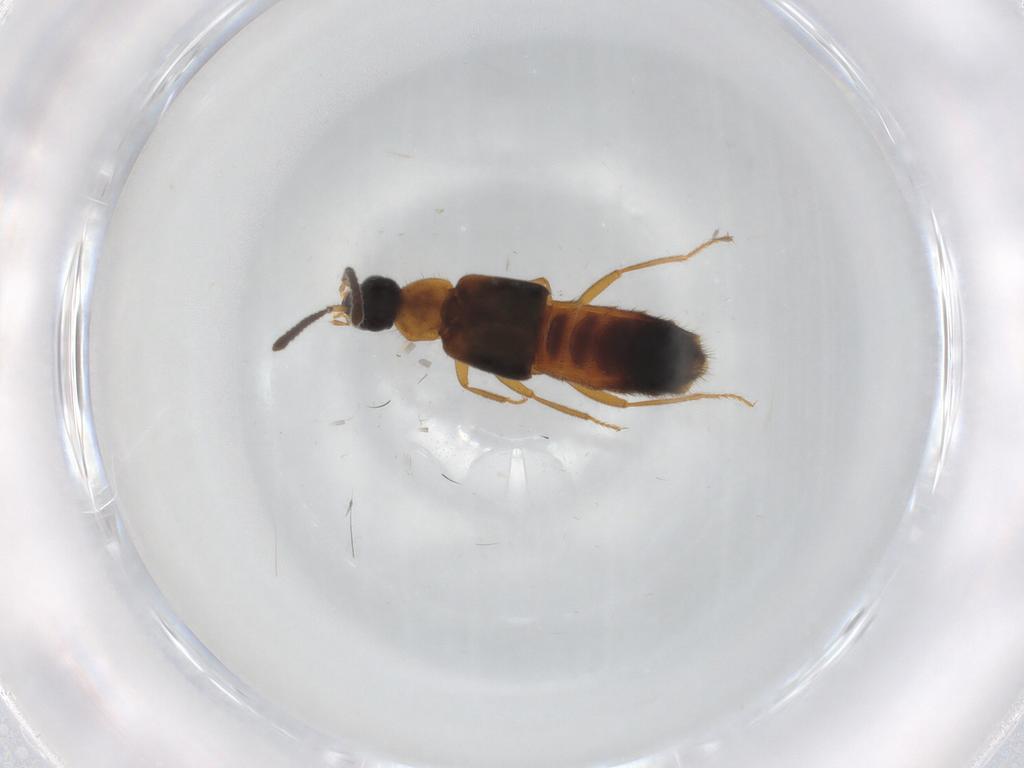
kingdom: Animalia
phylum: Arthropoda
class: Insecta
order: Coleoptera
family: Staphylinidae
